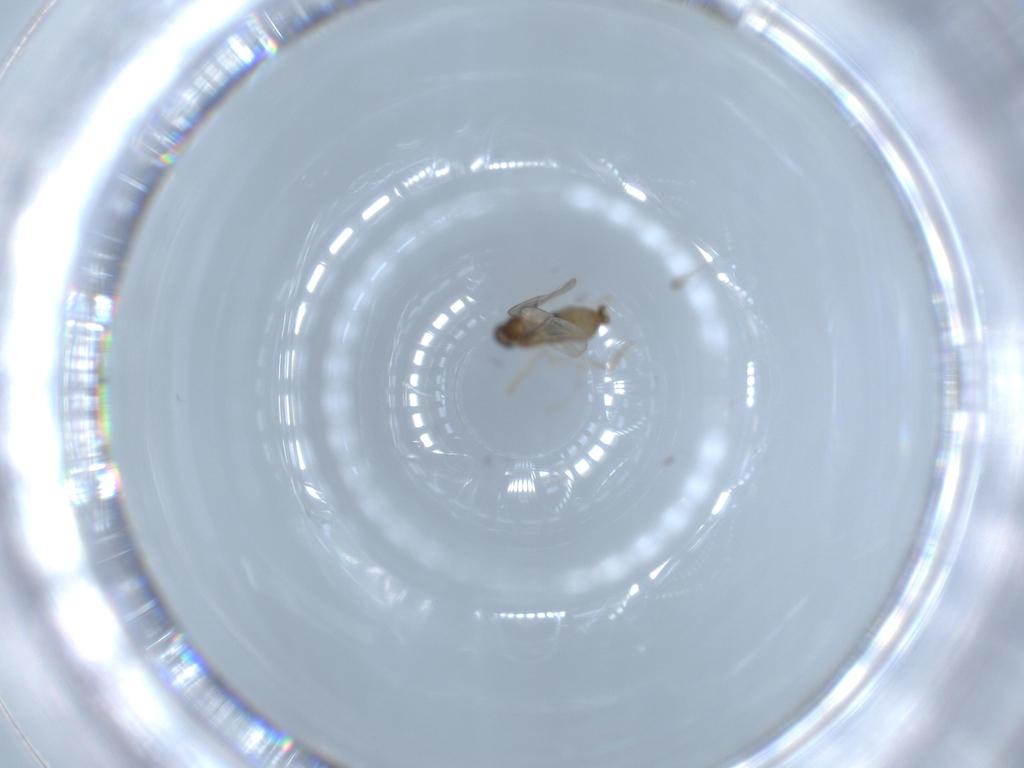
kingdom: Animalia
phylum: Arthropoda
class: Insecta
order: Diptera
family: Cecidomyiidae
